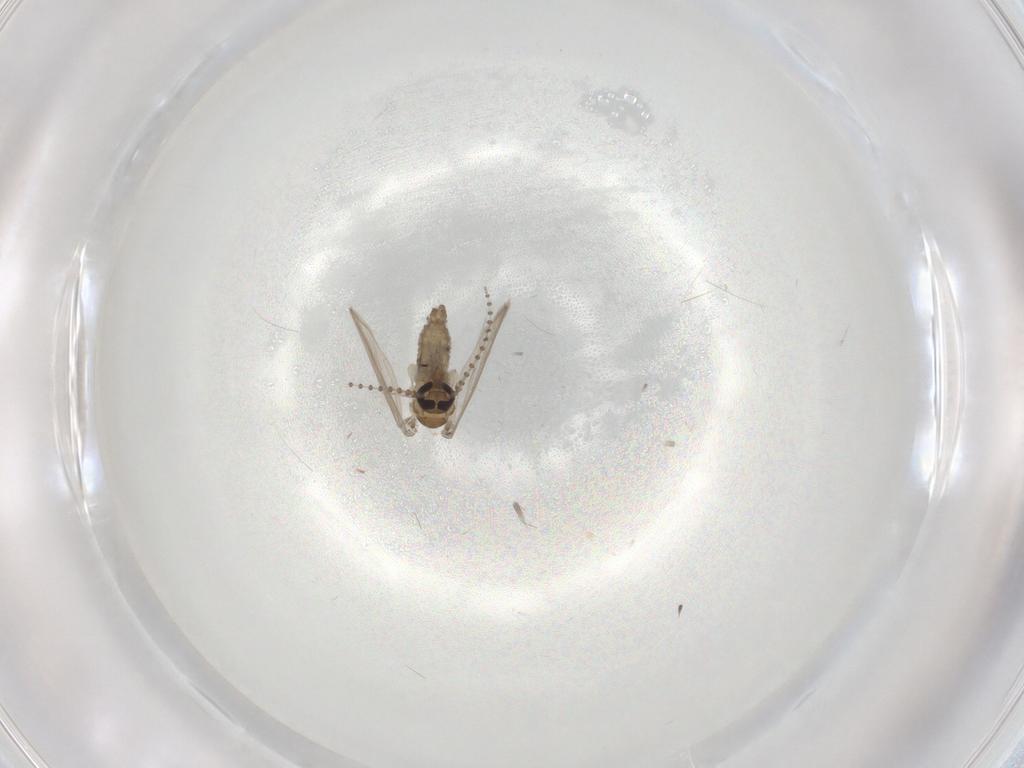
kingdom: Animalia
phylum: Arthropoda
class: Insecta
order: Diptera
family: Psychodidae
